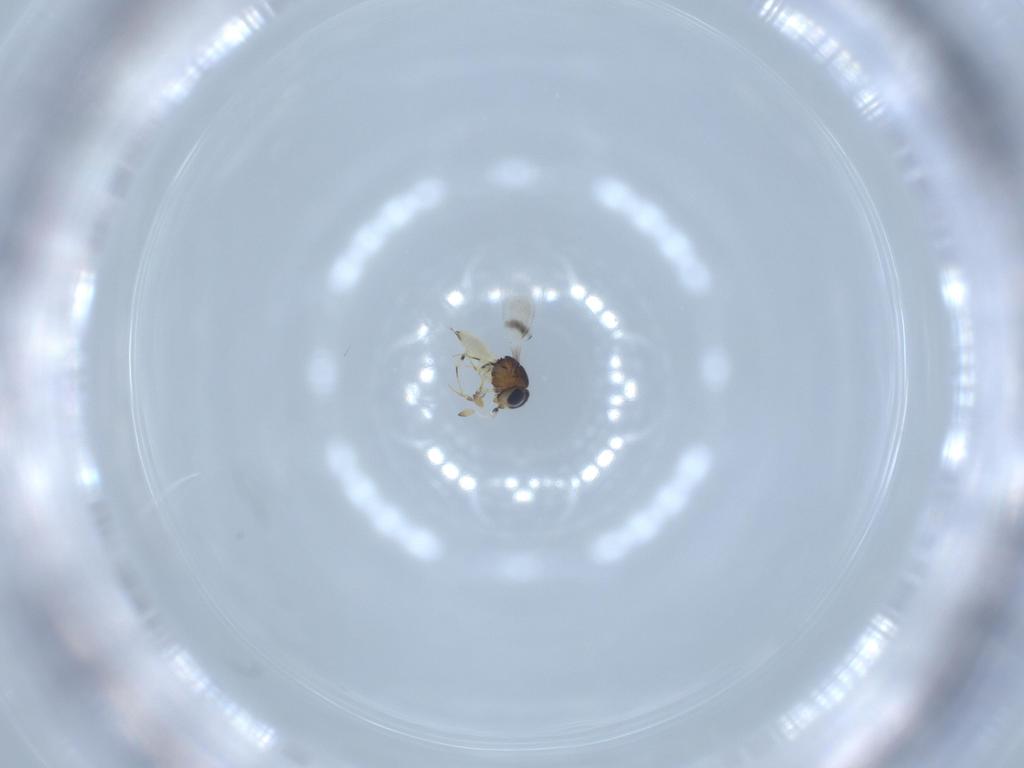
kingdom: Animalia
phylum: Arthropoda
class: Insecta
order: Hymenoptera
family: Scelionidae
